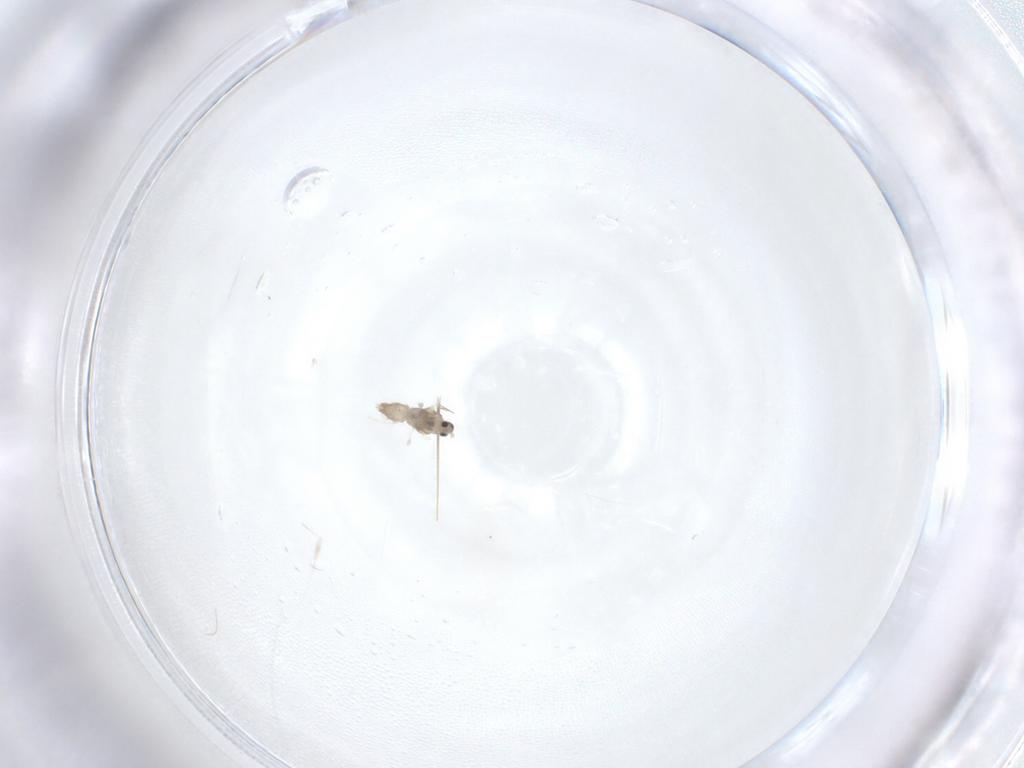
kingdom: Animalia
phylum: Arthropoda
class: Insecta
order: Diptera
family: Cecidomyiidae
